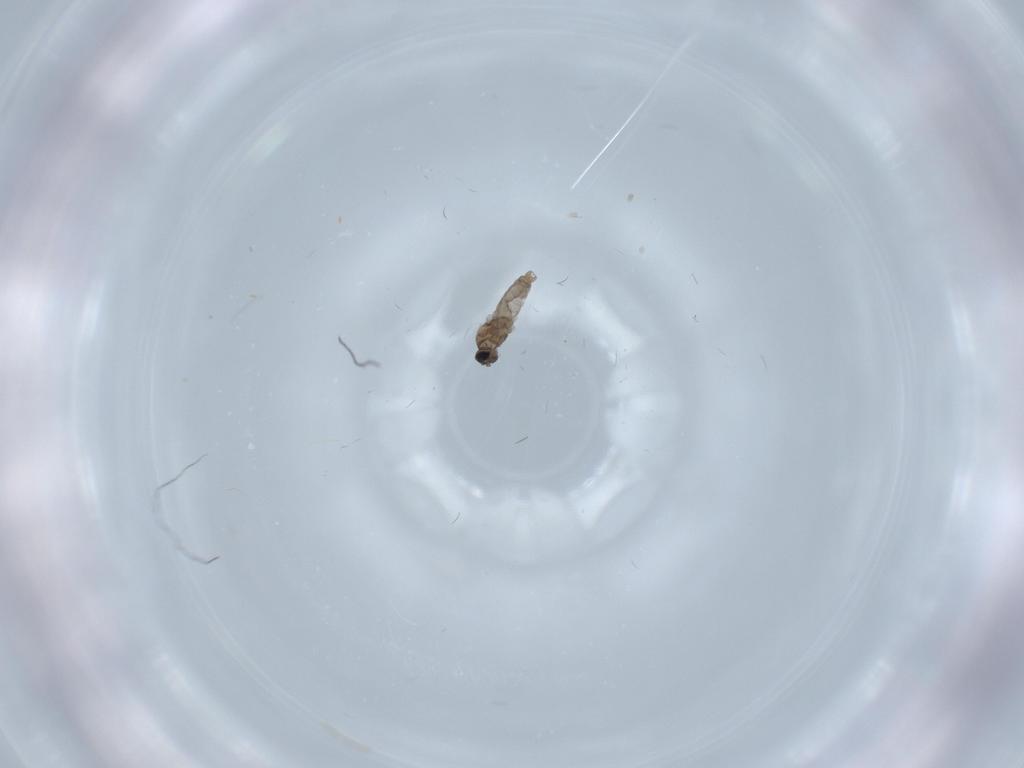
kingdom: Animalia
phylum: Arthropoda
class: Insecta
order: Diptera
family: Cecidomyiidae
